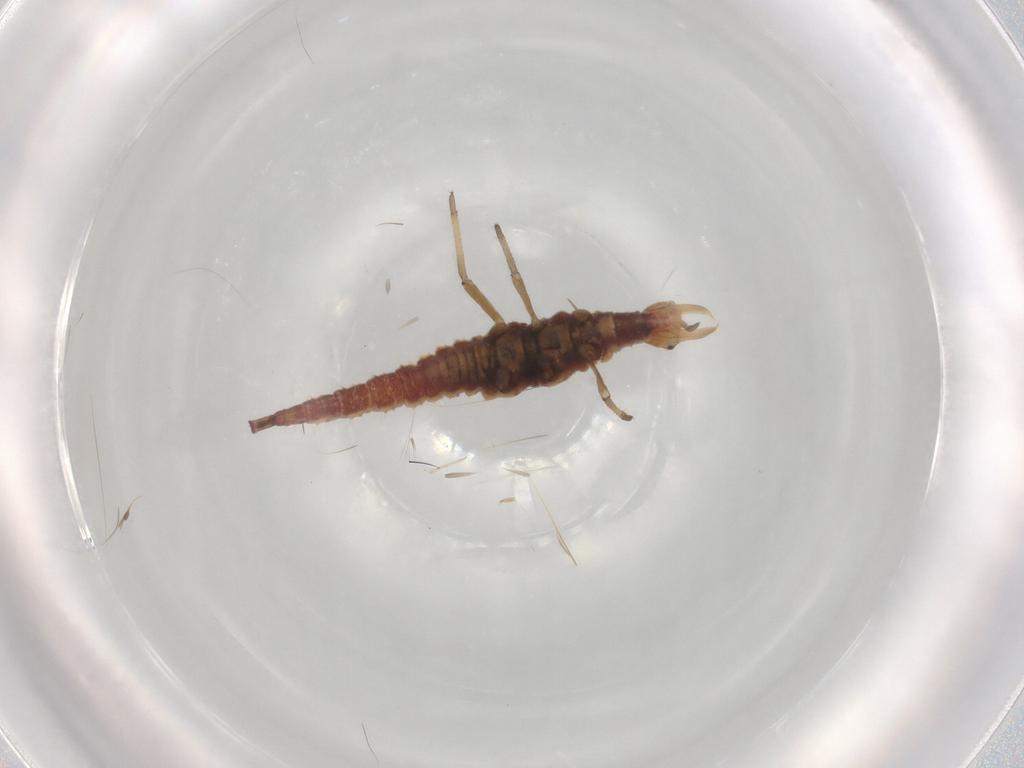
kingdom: Animalia
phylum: Arthropoda
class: Insecta
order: Neuroptera
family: Hemerobiidae
